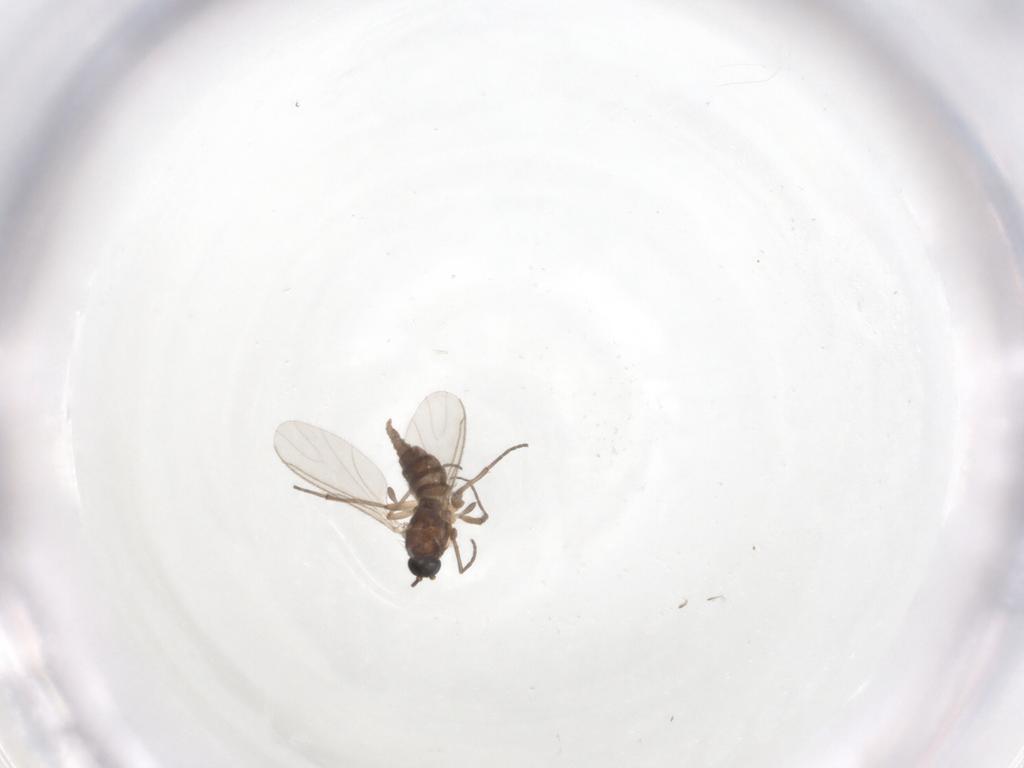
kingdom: Animalia
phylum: Arthropoda
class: Insecta
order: Diptera
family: Sciaridae
